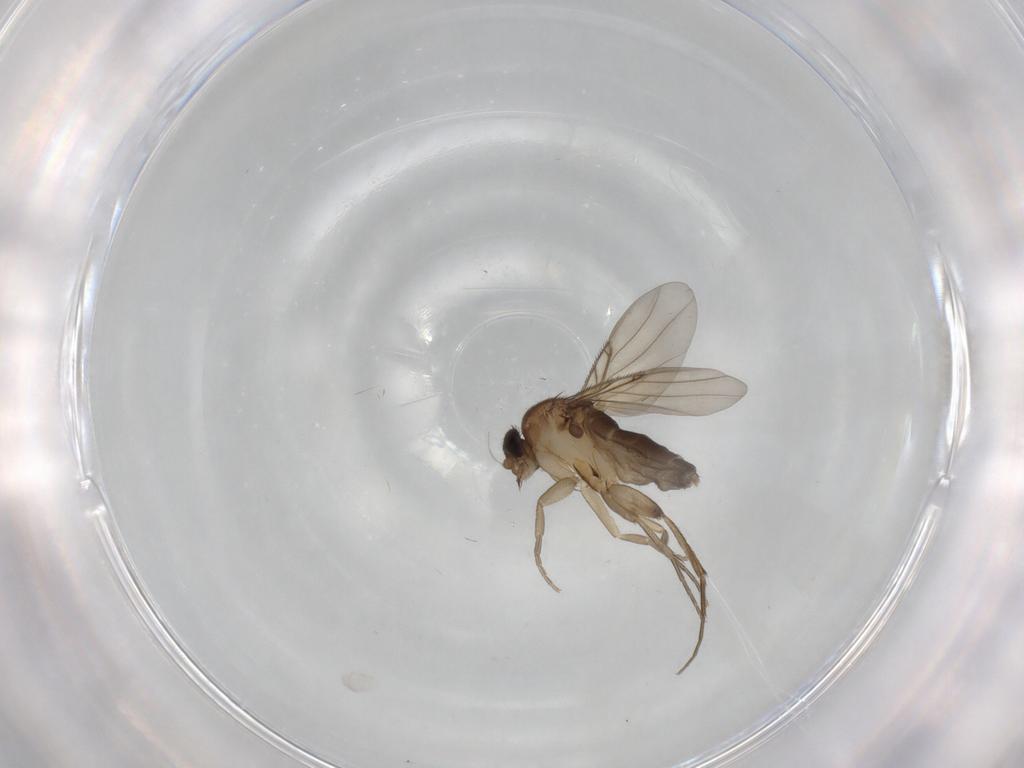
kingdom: Animalia
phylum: Arthropoda
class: Insecta
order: Diptera
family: Phoridae
